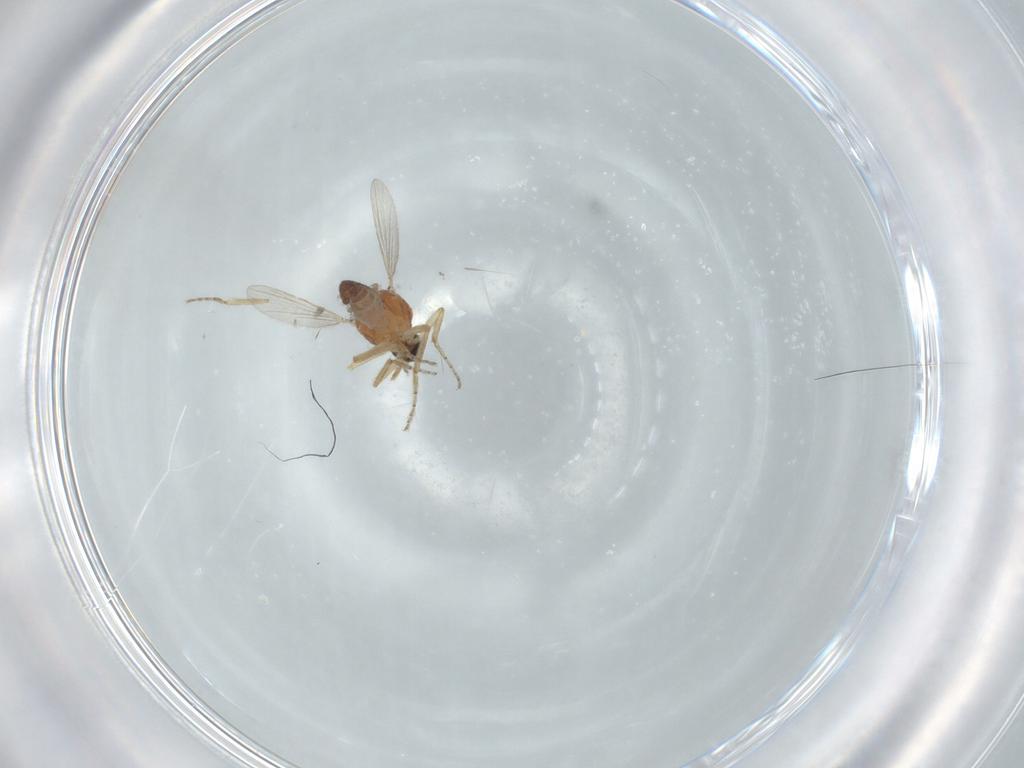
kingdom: Animalia
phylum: Arthropoda
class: Insecta
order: Diptera
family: Ceratopogonidae
